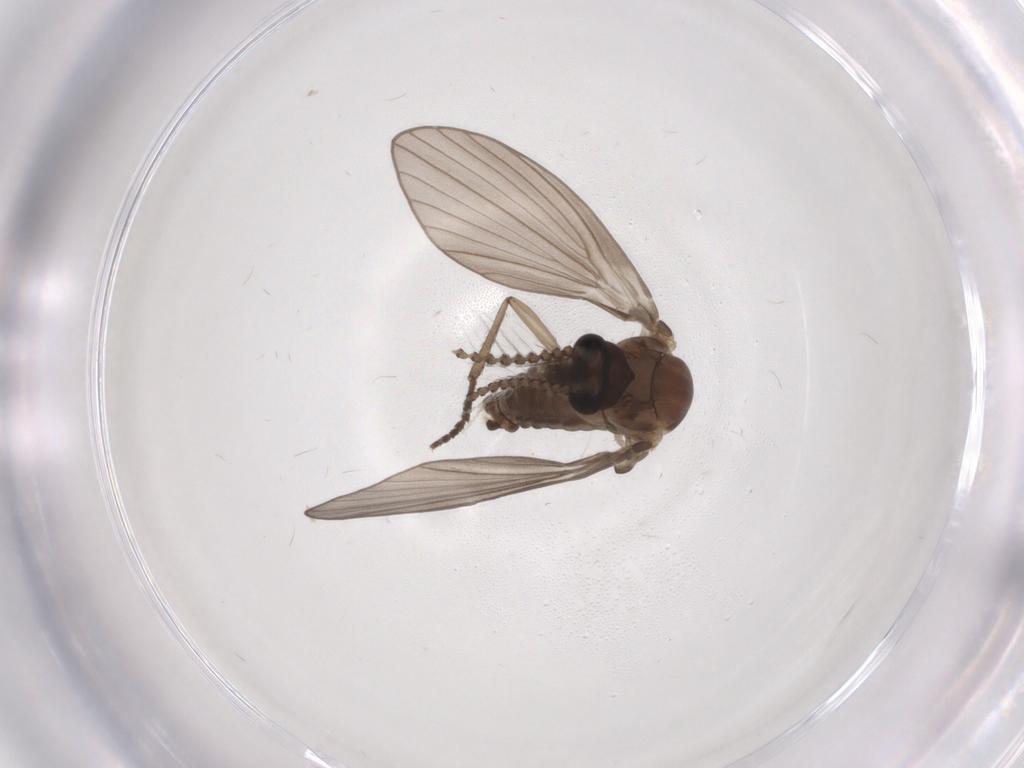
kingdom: Animalia
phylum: Arthropoda
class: Insecta
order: Diptera
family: Psychodidae
